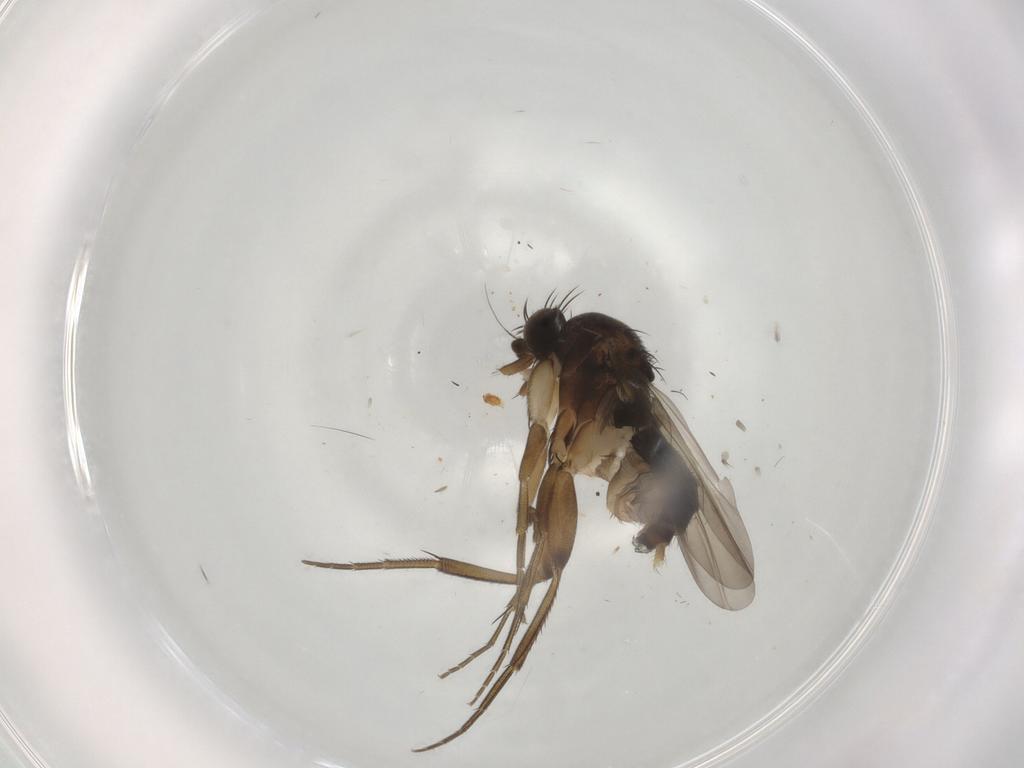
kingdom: Animalia
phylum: Arthropoda
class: Insecta
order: Diptera
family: Phoridae
